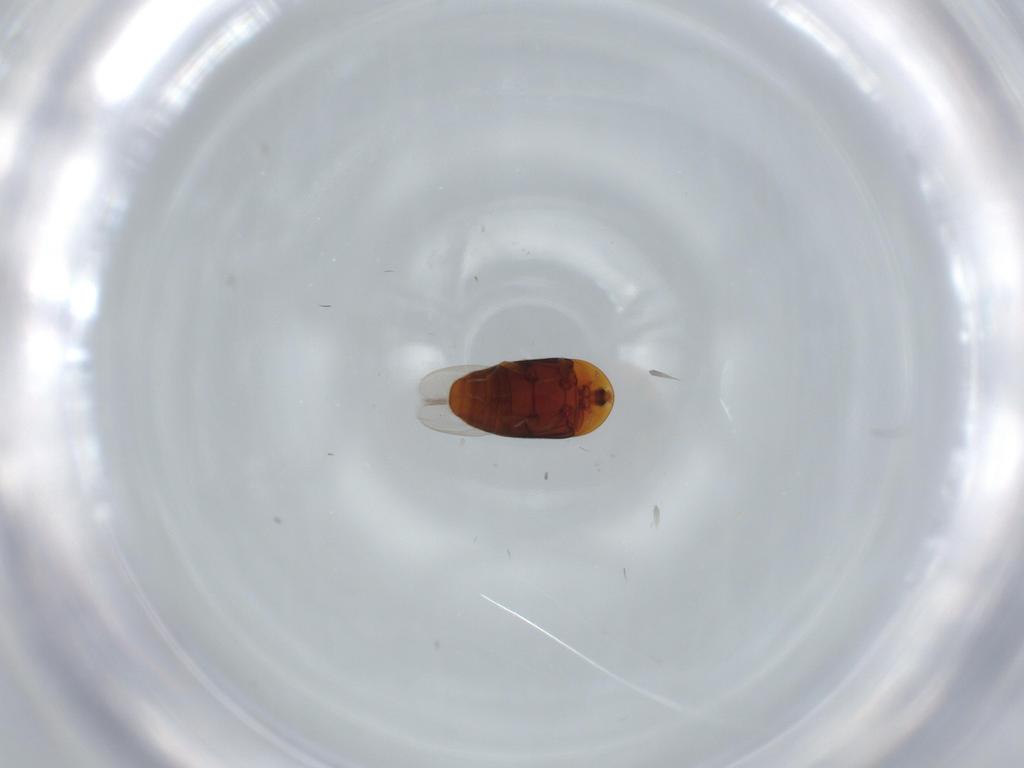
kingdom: Animalia
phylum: Arthropoda
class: Insecta
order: Coleoptera
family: Corylophidae
